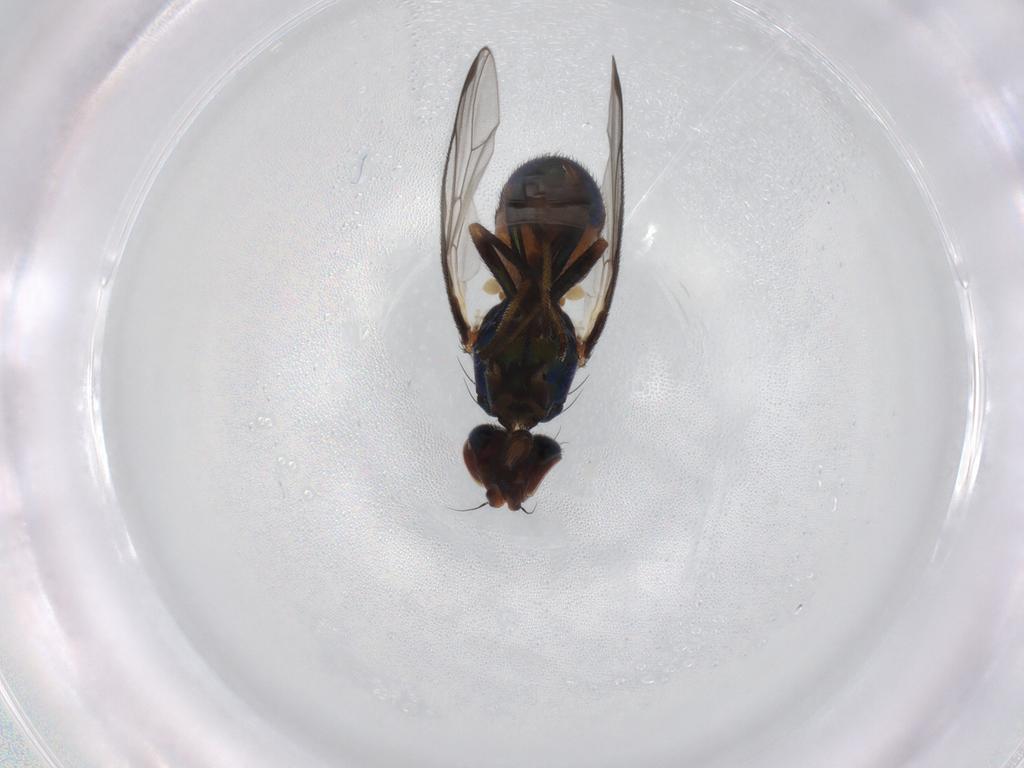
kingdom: Animalia
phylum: Arthropoda
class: Insecta
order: Diptera
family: Platystomatidae
